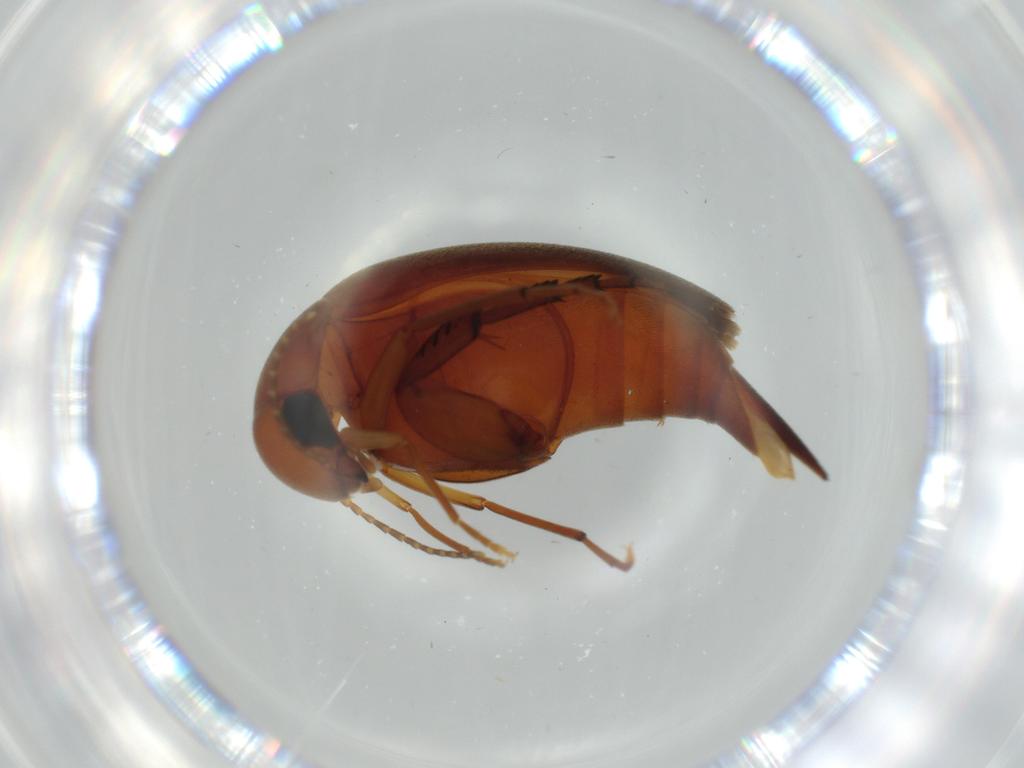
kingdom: Animalia
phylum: Arthropoda
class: Insecta
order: Coleoptera
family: Mordellidae
